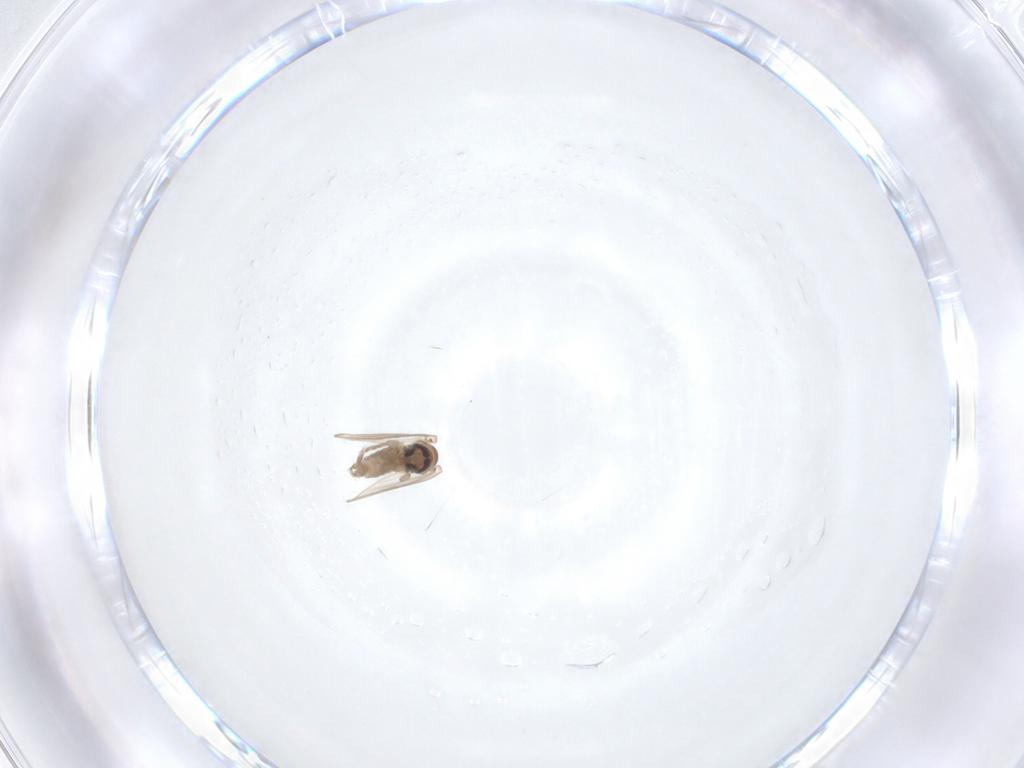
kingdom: Animalia
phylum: Arthropoda
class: Insecta
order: Diptera
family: Psychodidae
